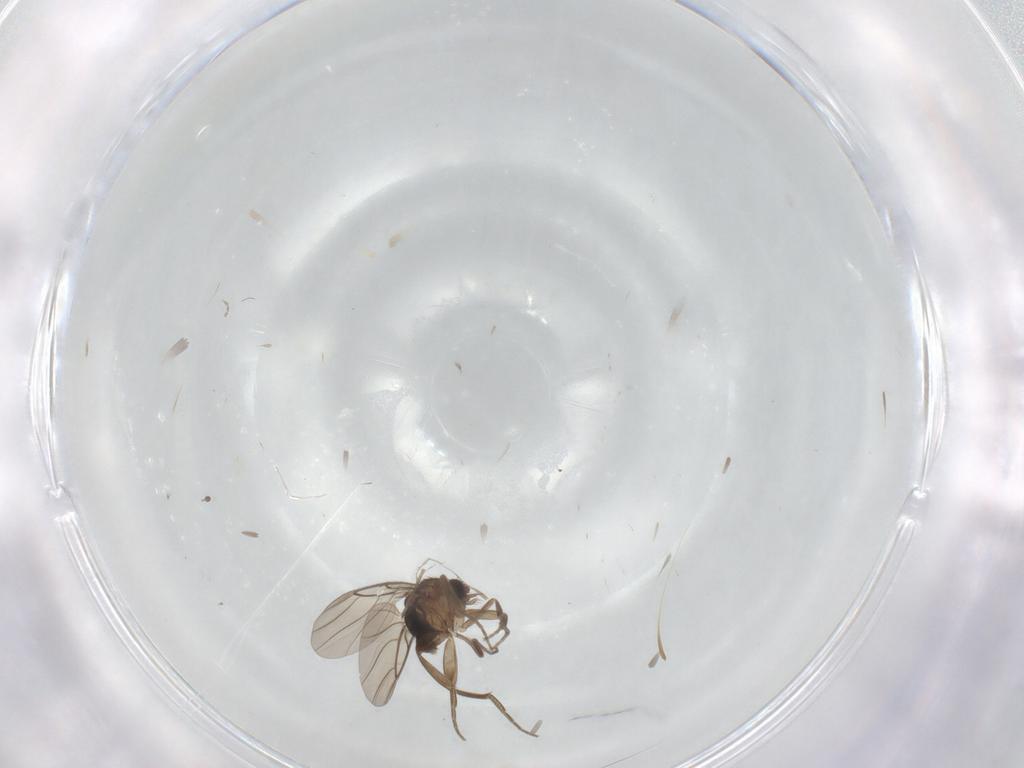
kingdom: Animalia
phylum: Arthropoda
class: Insecta
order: Diptera
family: Phoridae
